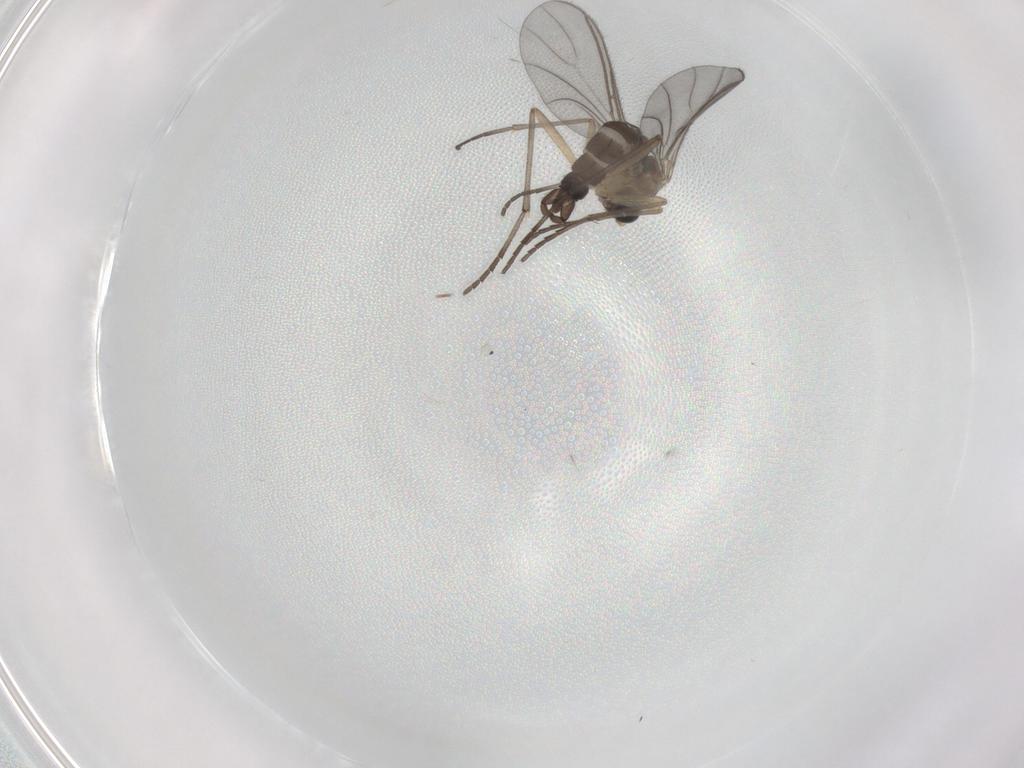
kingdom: Animalia
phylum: Arthropoda
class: Insecta
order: Diptera
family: Sciaridae
